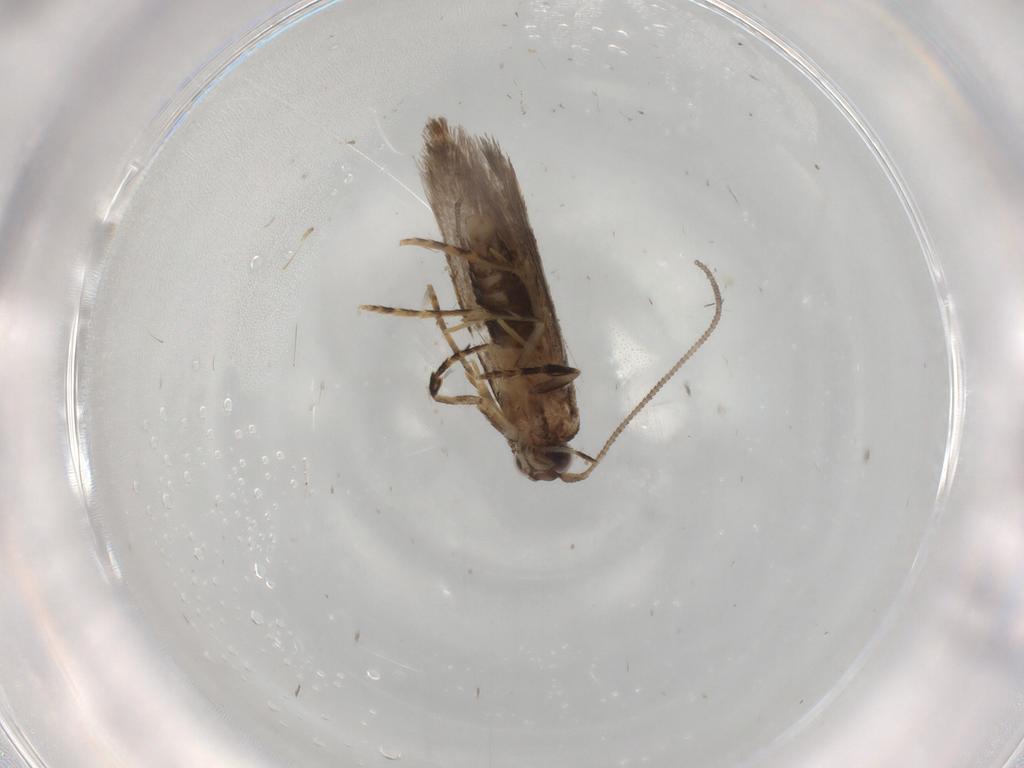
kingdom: Animalia
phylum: Arthropoda
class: Insecta
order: Lepidoptera
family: Tineidae
